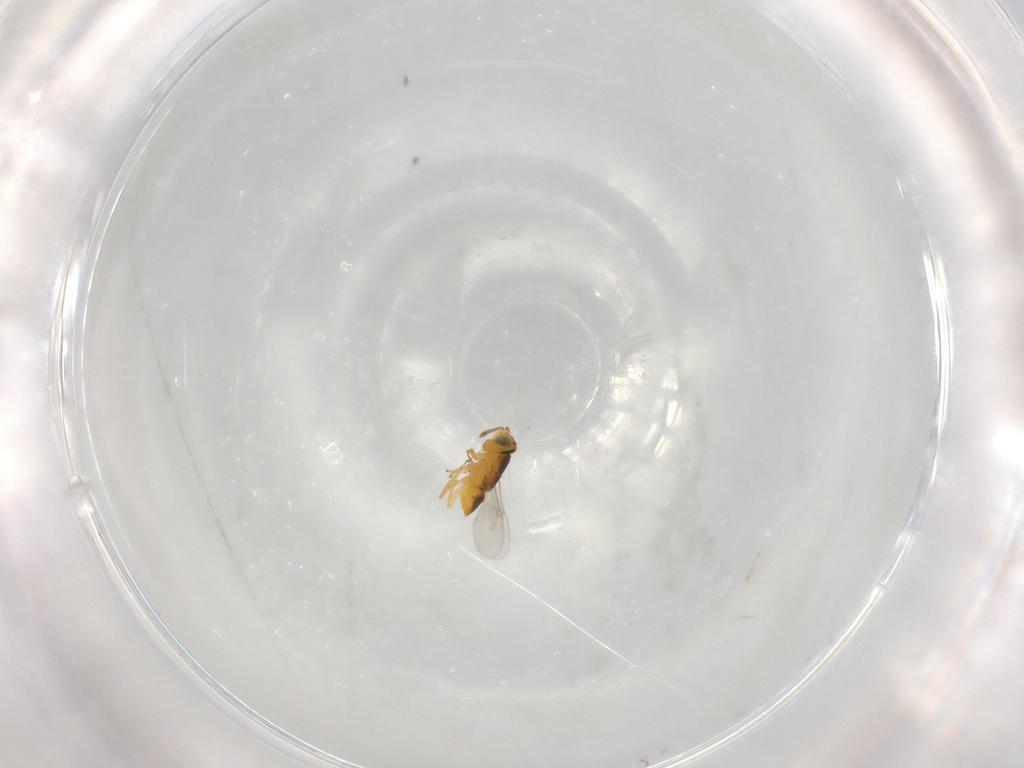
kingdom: Animalia
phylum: Arthropoda
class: Insecta
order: Hymenoptera
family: Encyrtidae
